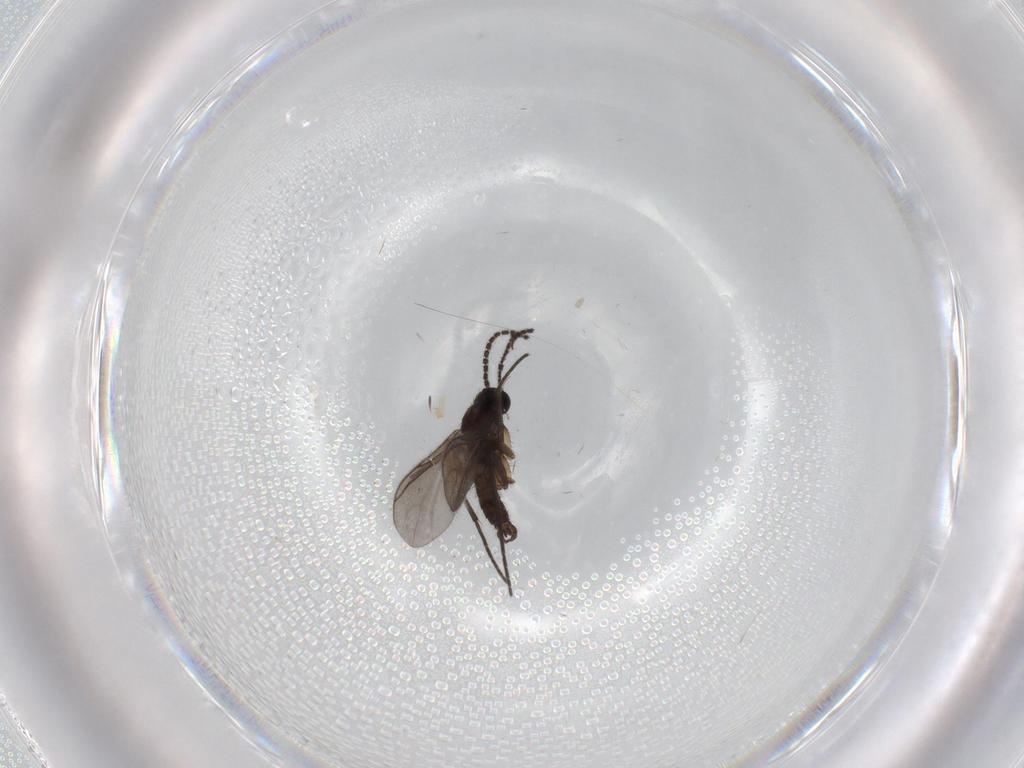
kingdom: Animalia
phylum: Arthropoda
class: Insecta
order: Diptera
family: Sciaridae
